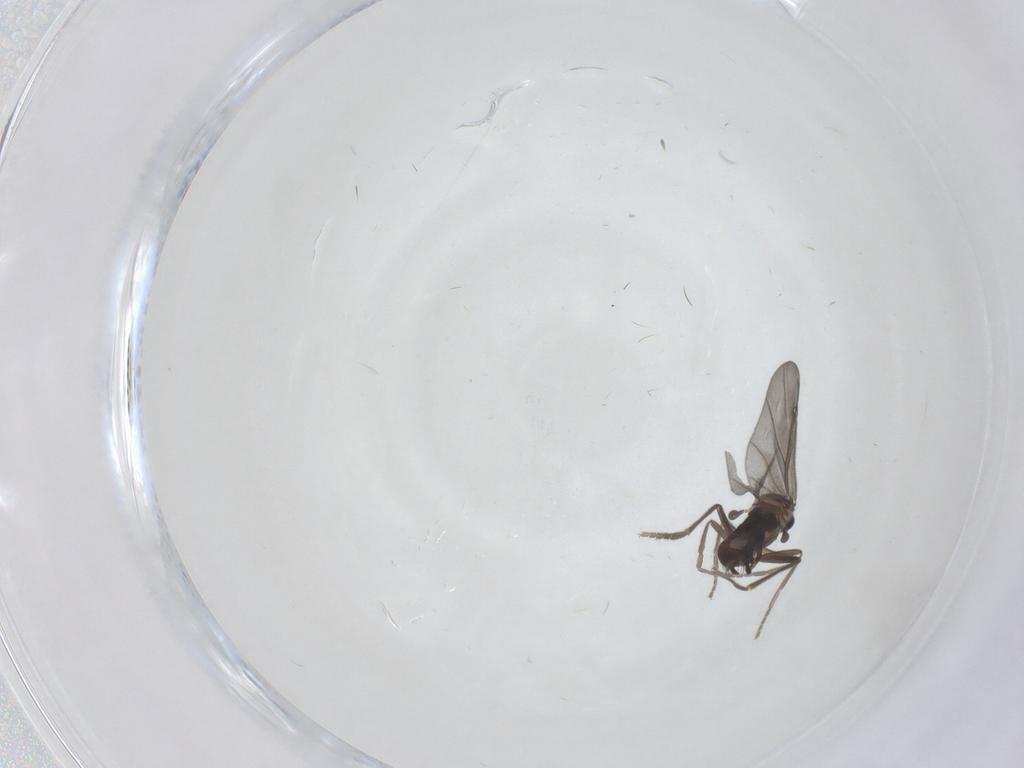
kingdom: Animalia
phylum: Arthropoda
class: Insecta
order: Diptera
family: Phoridae
